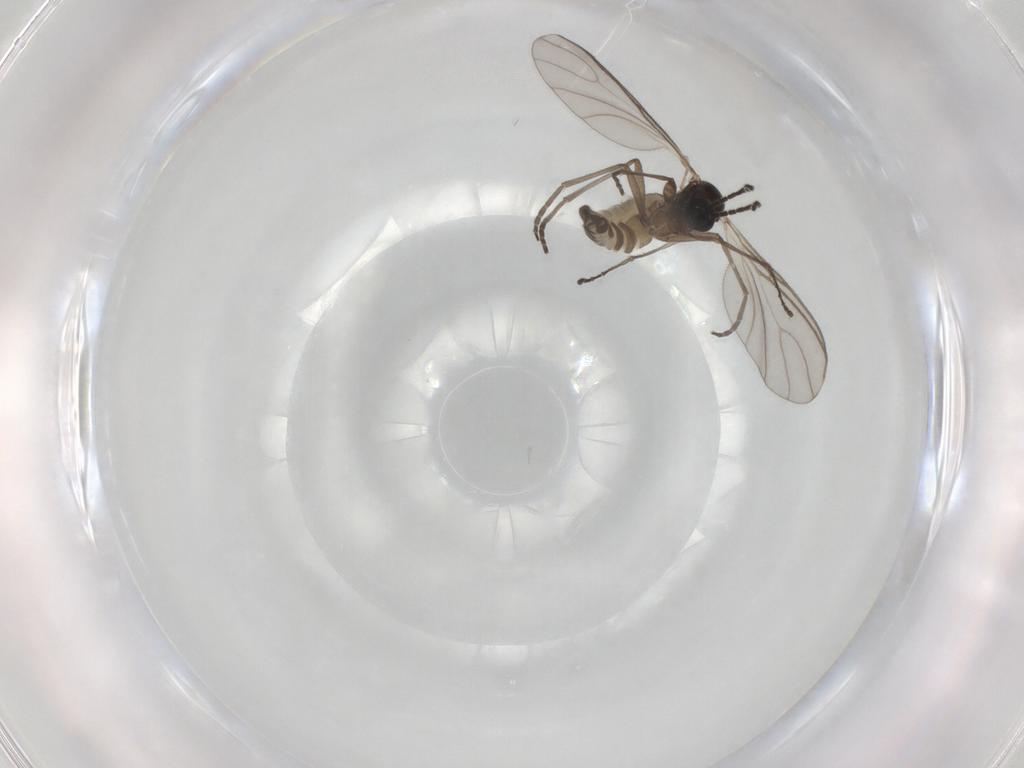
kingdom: Animalia
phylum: Arthropoda
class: Insecta
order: Diptera
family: Sciaridae
